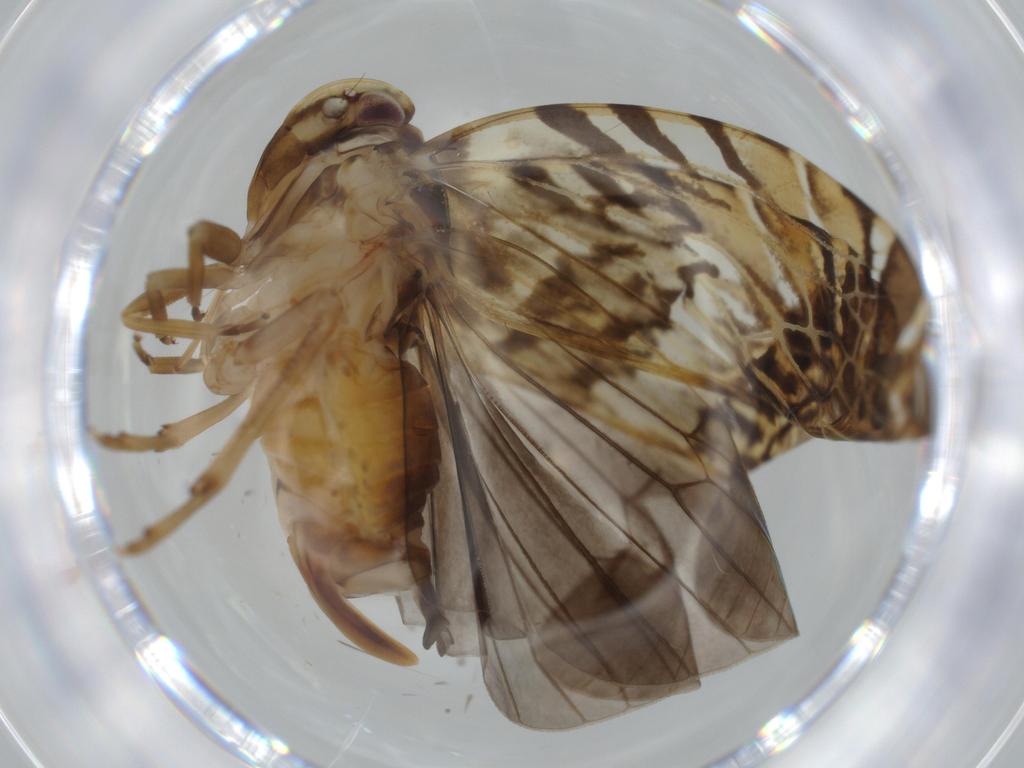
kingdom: Animalia
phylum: Arthropoda
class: Insecta
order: Hemiptera
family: Cixiidae
